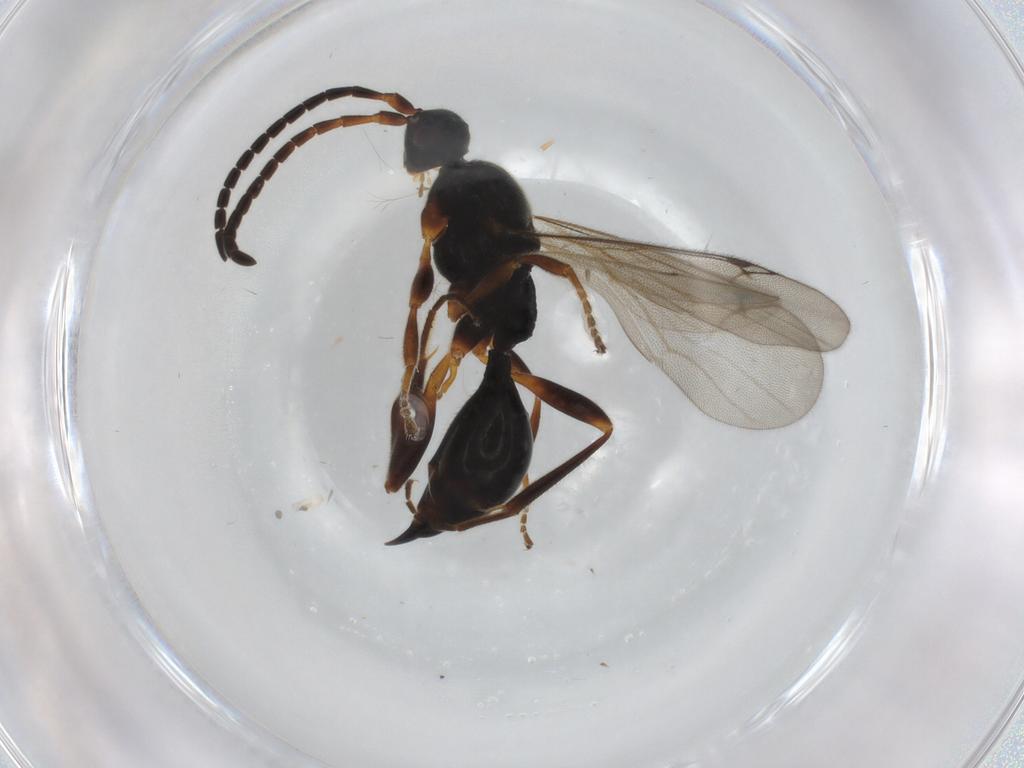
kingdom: Animalia
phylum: Arthropoda
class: Insecta
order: Hymenoptera
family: Proctotrupidae
